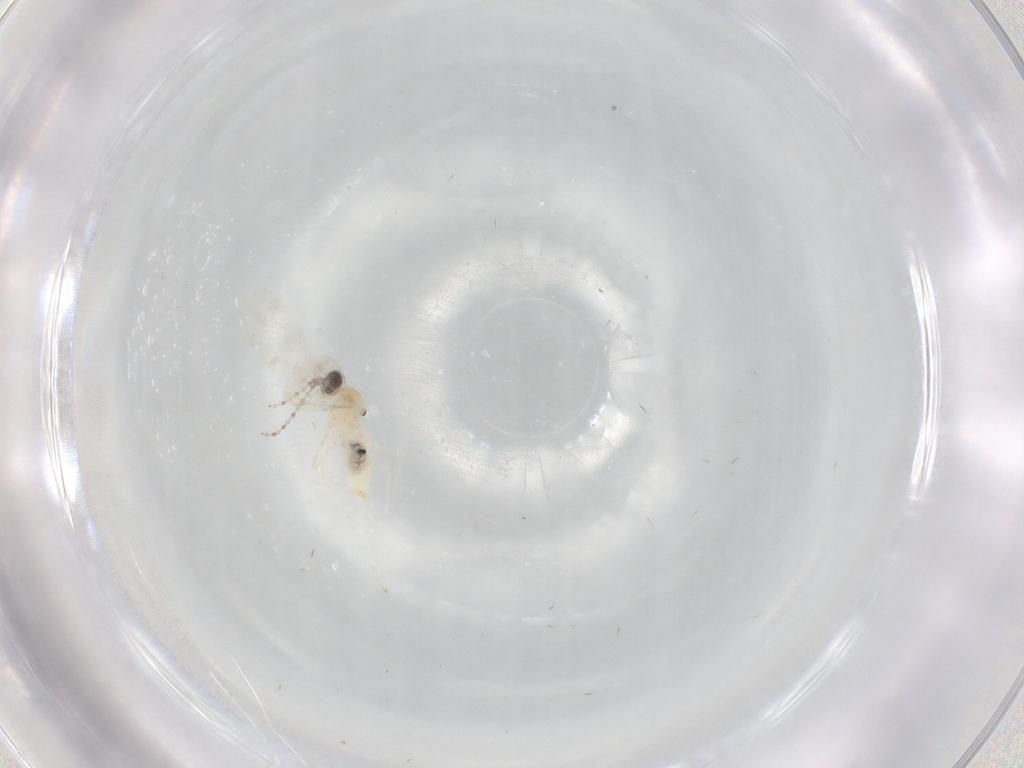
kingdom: Animalia
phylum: Arthropoda
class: Insecta
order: Diptera
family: Cecidomyiidae
